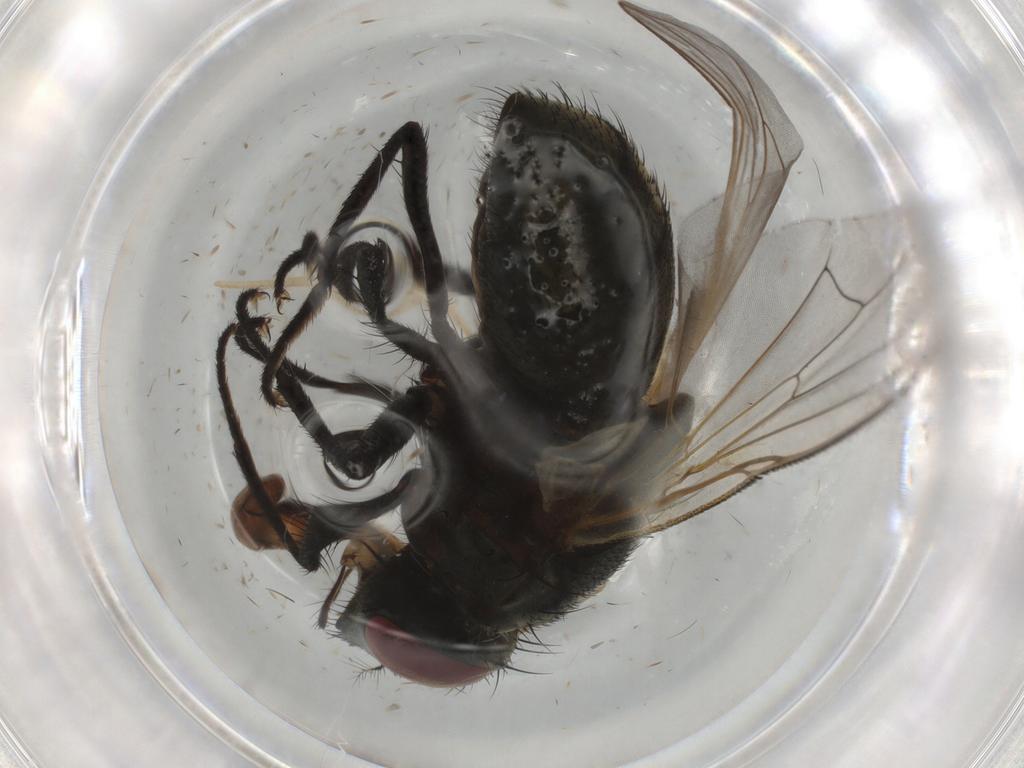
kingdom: Animalia
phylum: Arthropoda
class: Insecta
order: Diptera
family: Muscidae
